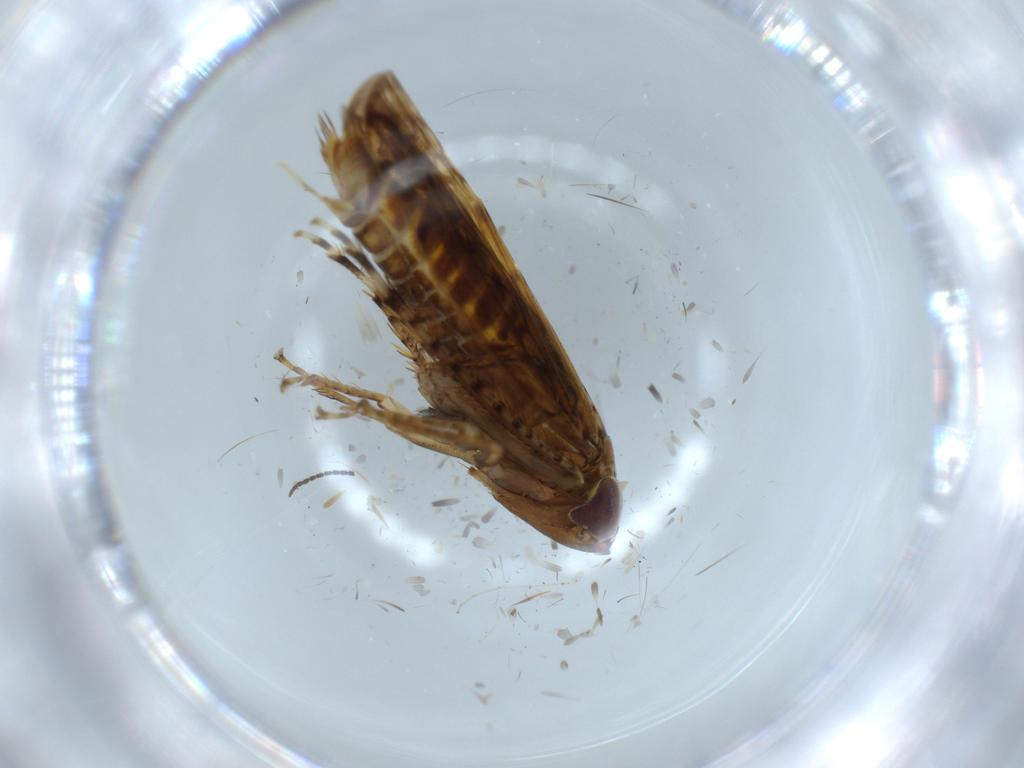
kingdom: Animalia
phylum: Arthropoda
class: Insecta
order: Hemiptera
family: Cicadellidae
